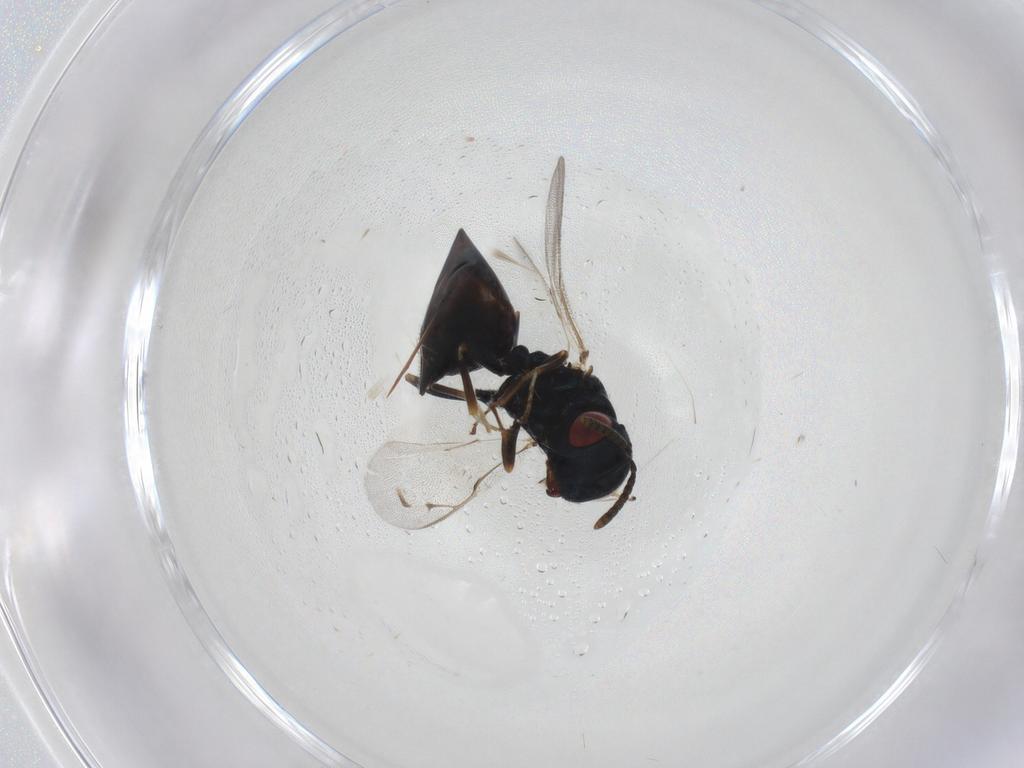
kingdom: Animalia
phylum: Arthropoda
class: Insecta
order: Hymenoptera
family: Pteromalidae
